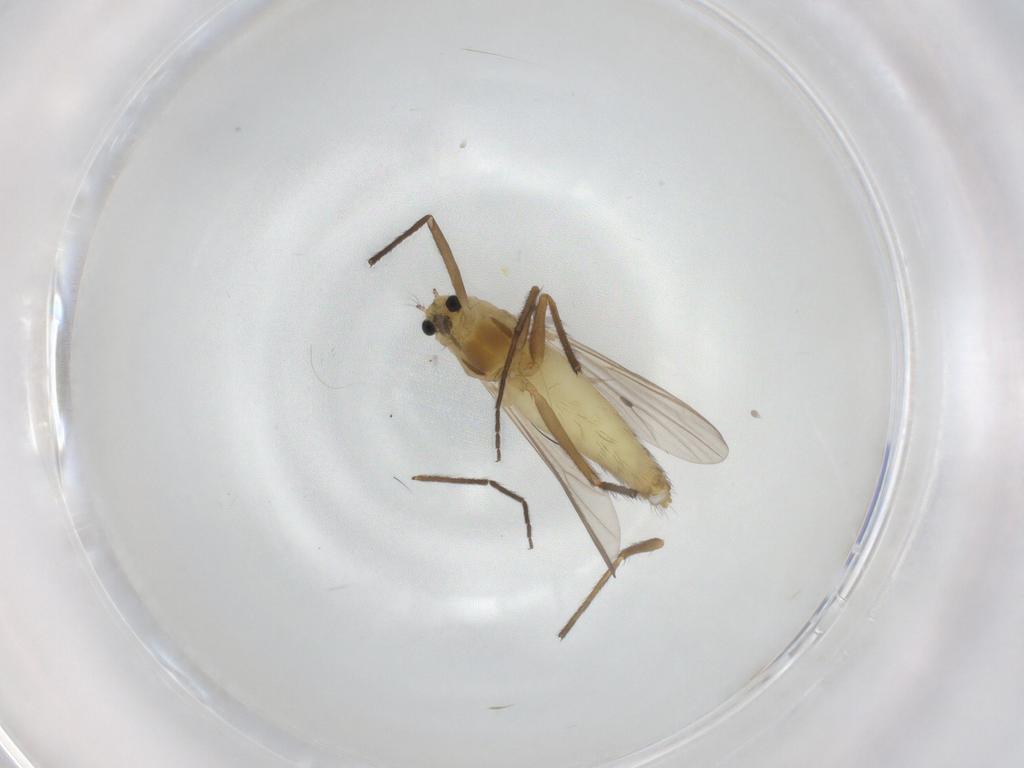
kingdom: Animalia
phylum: Arthropoda
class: Insecta
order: Diptera
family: Chironomidae
